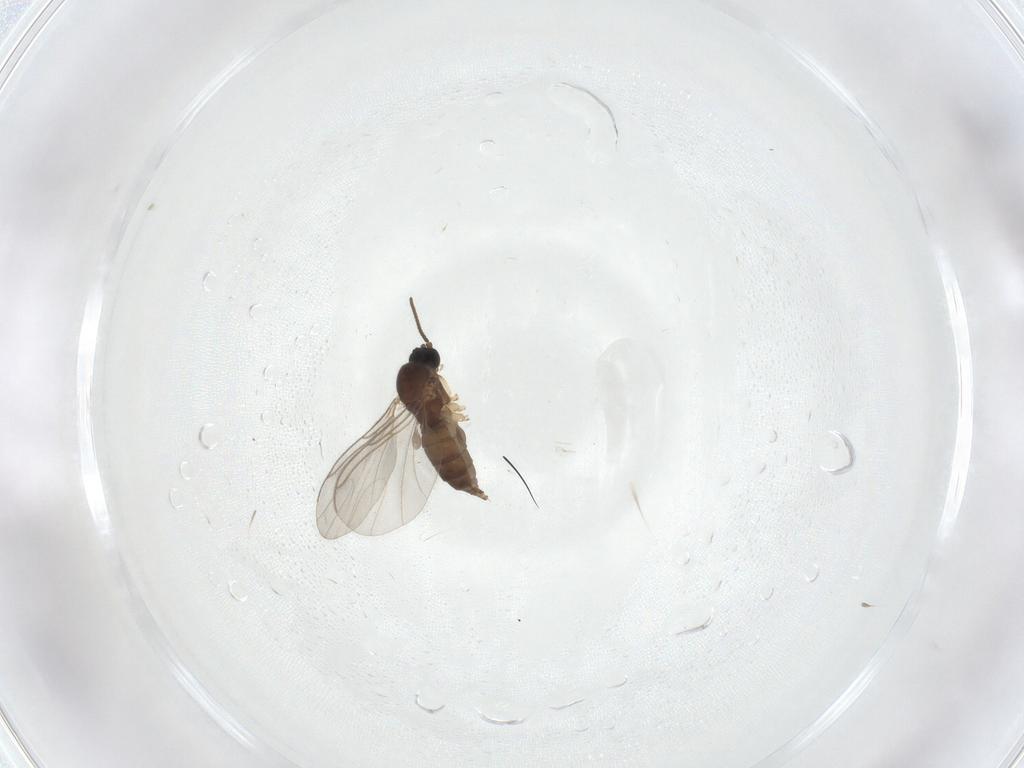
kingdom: Animalia
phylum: Arthropoda
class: Insecta
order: Diptera
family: Sciaridae
